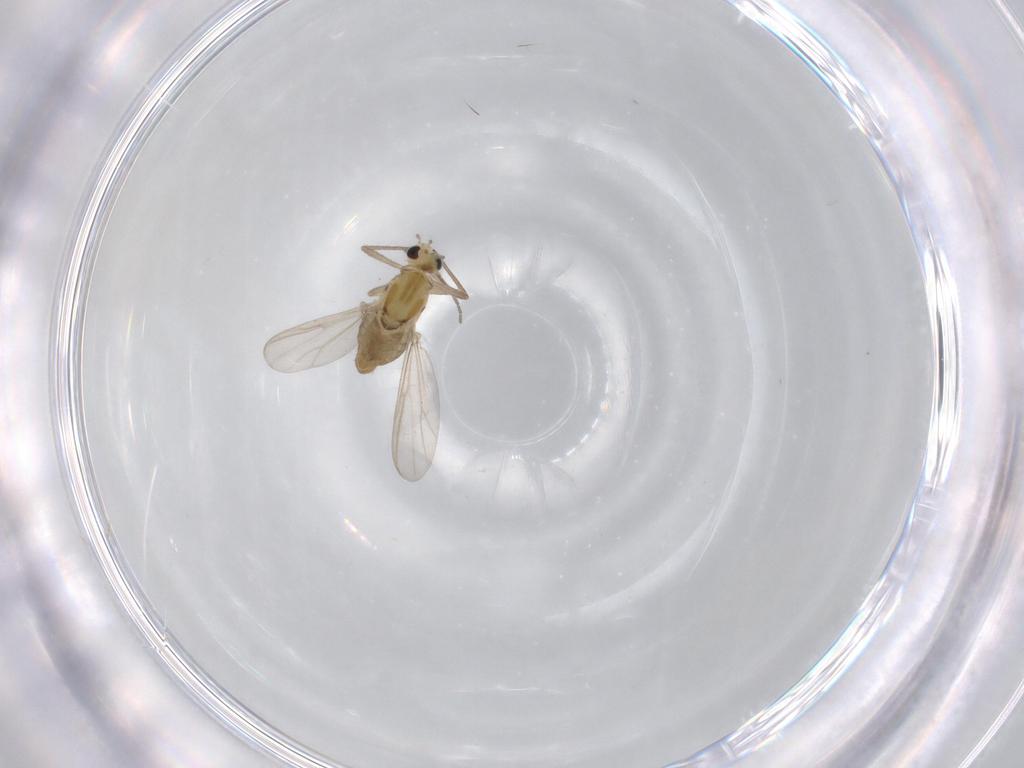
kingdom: Animalia
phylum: Arthropoda
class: Insecta
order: Diptera
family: Chironomidae
